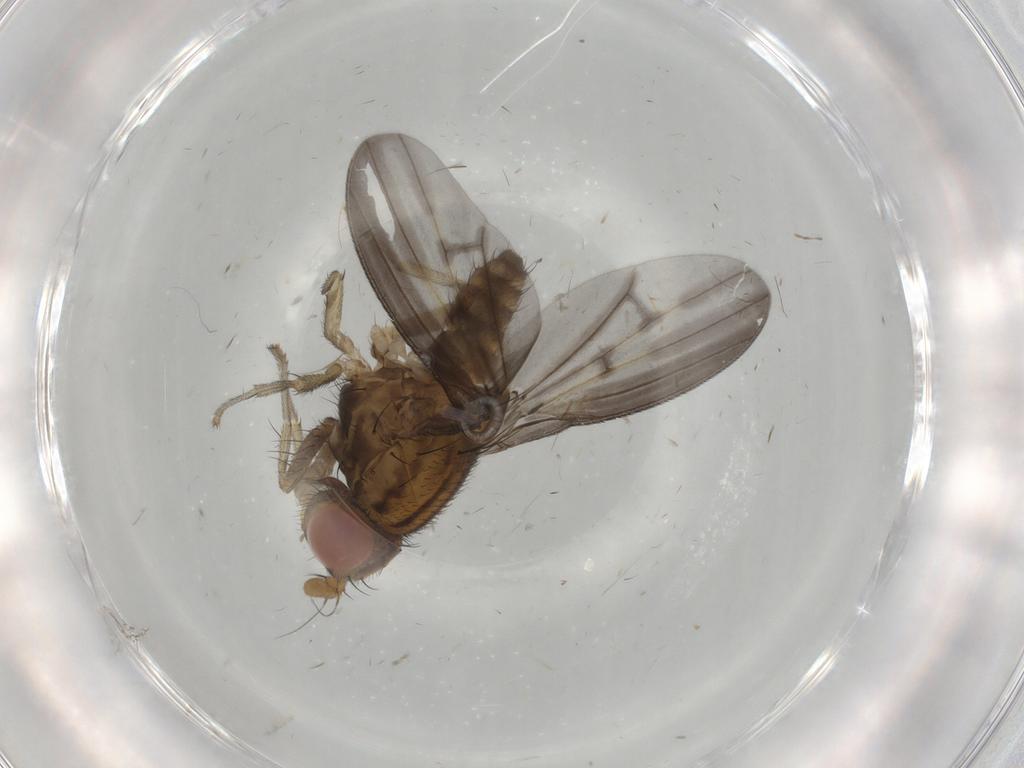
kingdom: Animalia
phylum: Arthropoda
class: Insecta
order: Diptera
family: Lauxaniidae
